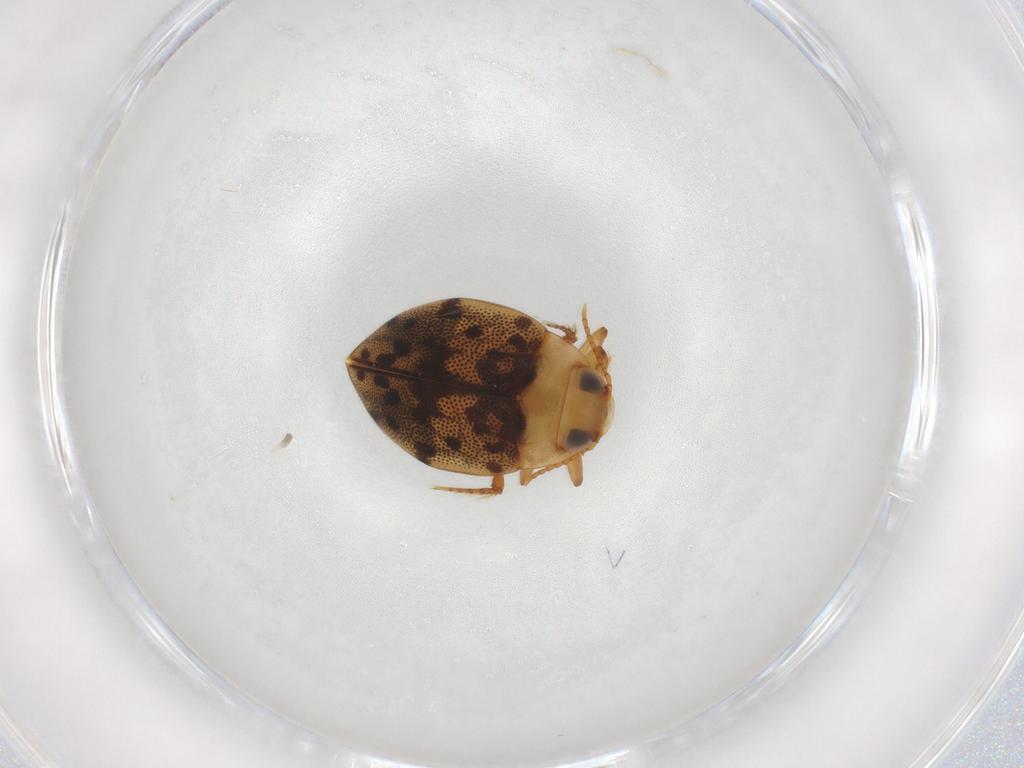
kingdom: Animalia
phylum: Arthropoda
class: Insecta
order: Coleoptera
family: Dytiscidae
